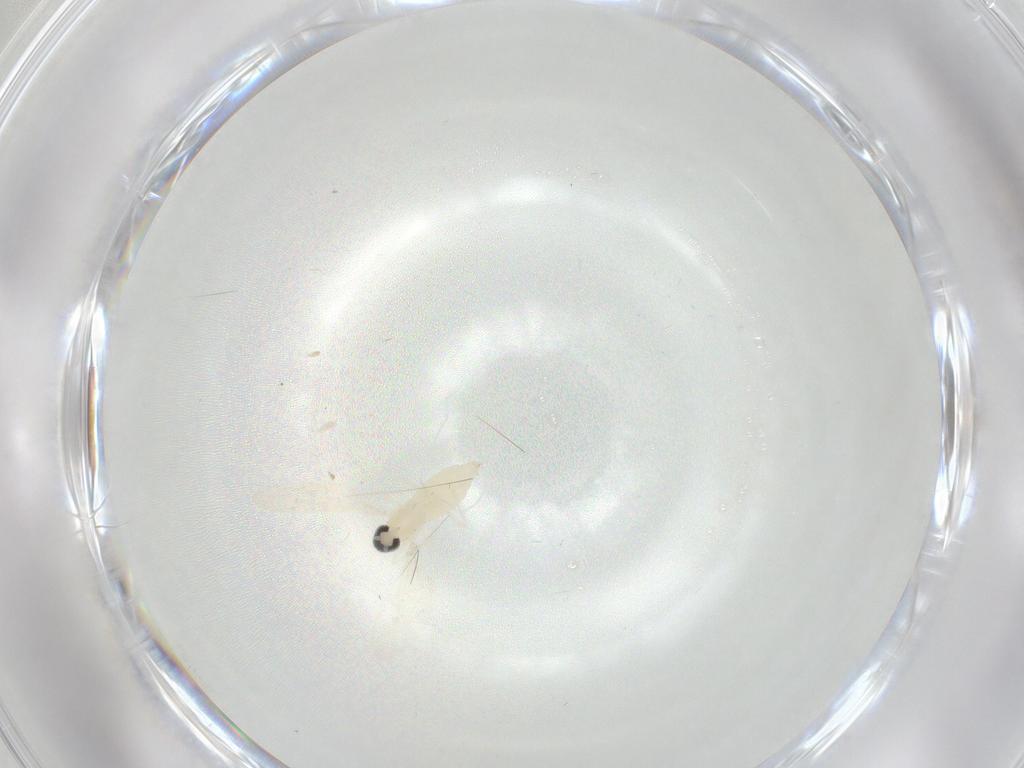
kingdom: Animalia
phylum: Arthropoda
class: Insecta
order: Diptera
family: Cecidomyiidae
